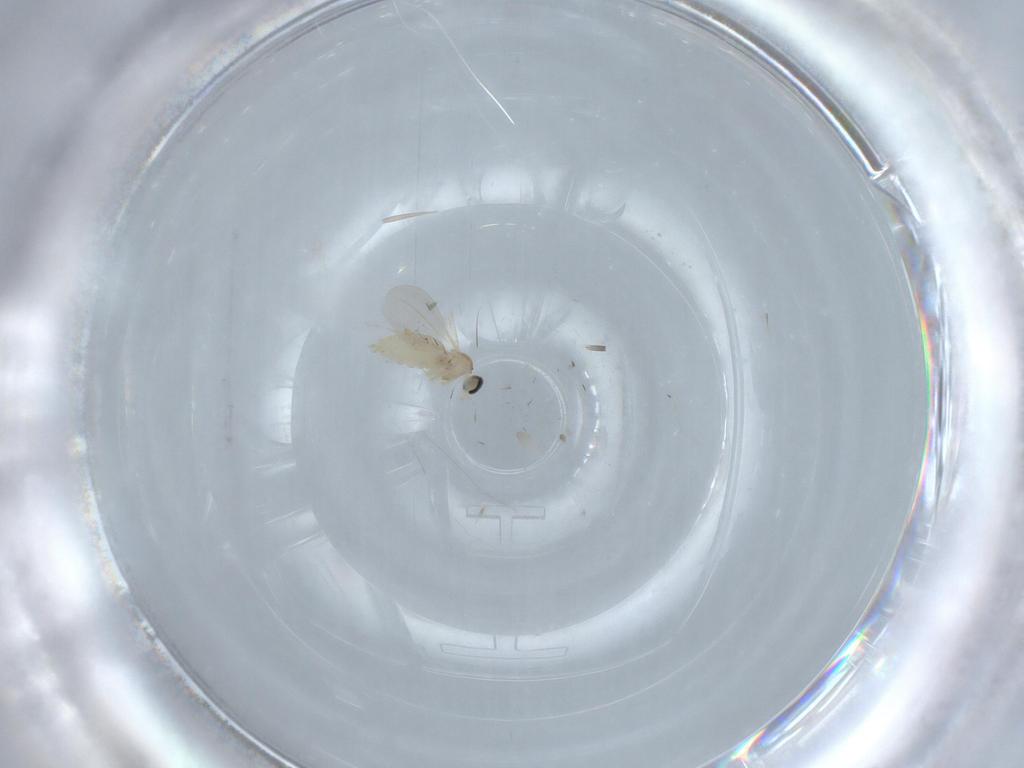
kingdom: Animalia
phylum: Arthropoda
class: Insecta
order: Diptera
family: Cecidomyiidae
